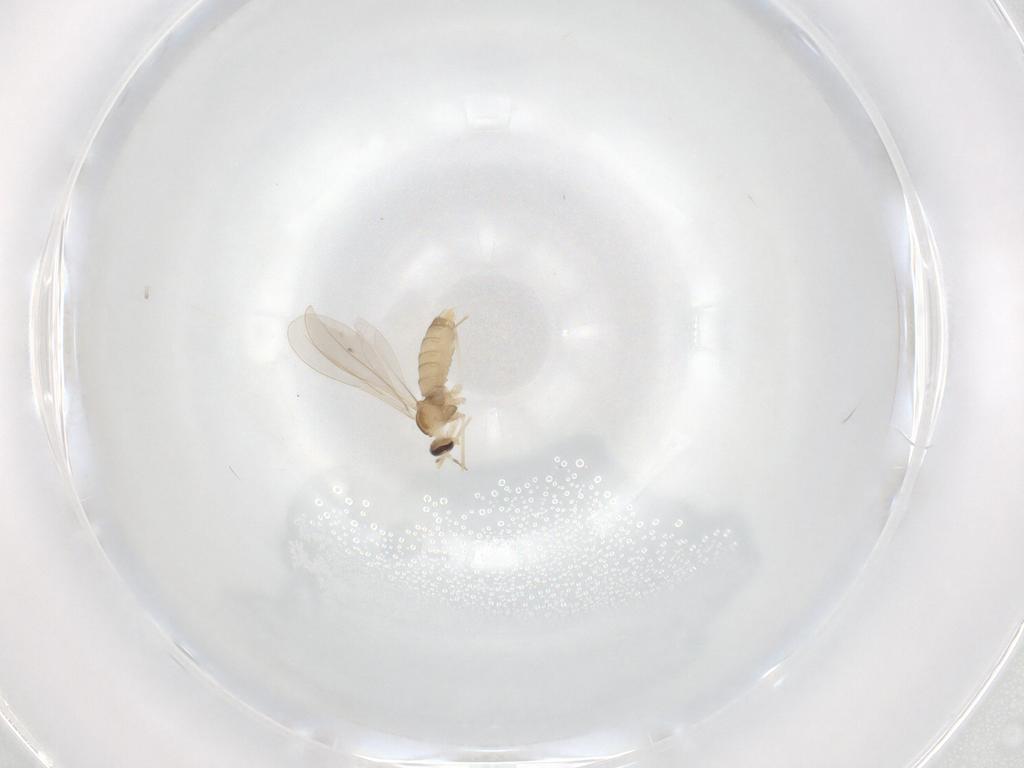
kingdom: Animalia
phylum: Arthropoda
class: Insecta
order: Diptera
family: Cecidomyiidae
